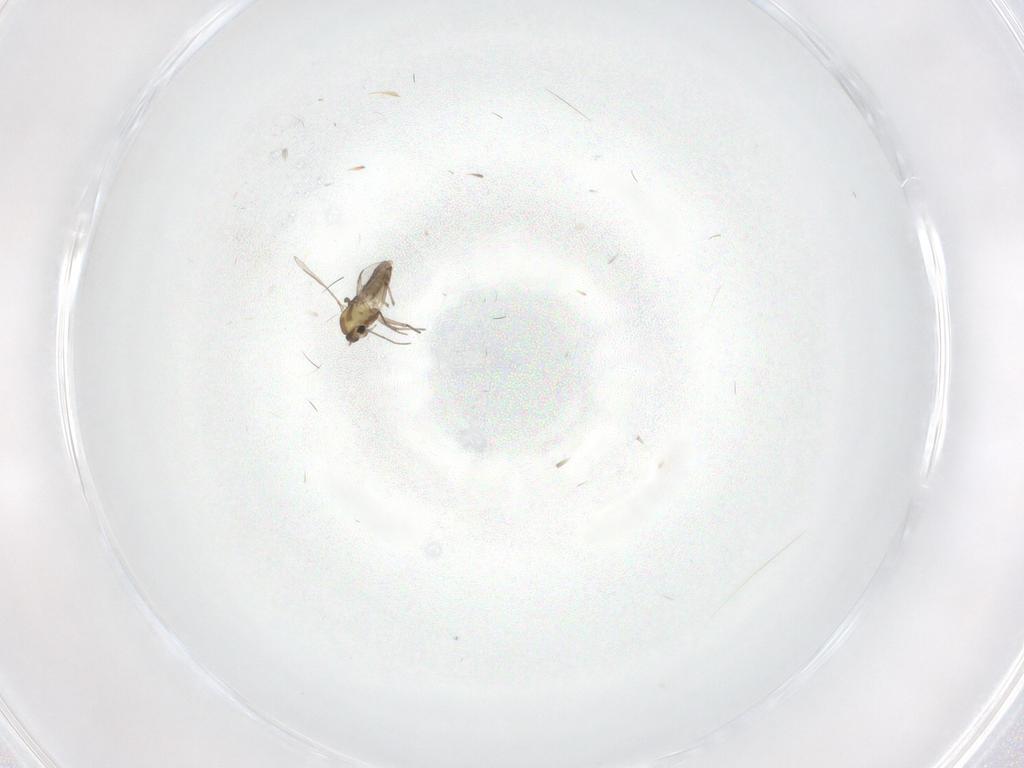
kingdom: Animalia
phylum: Arthropoda
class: Insecta
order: Diptera
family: Chironomidae
